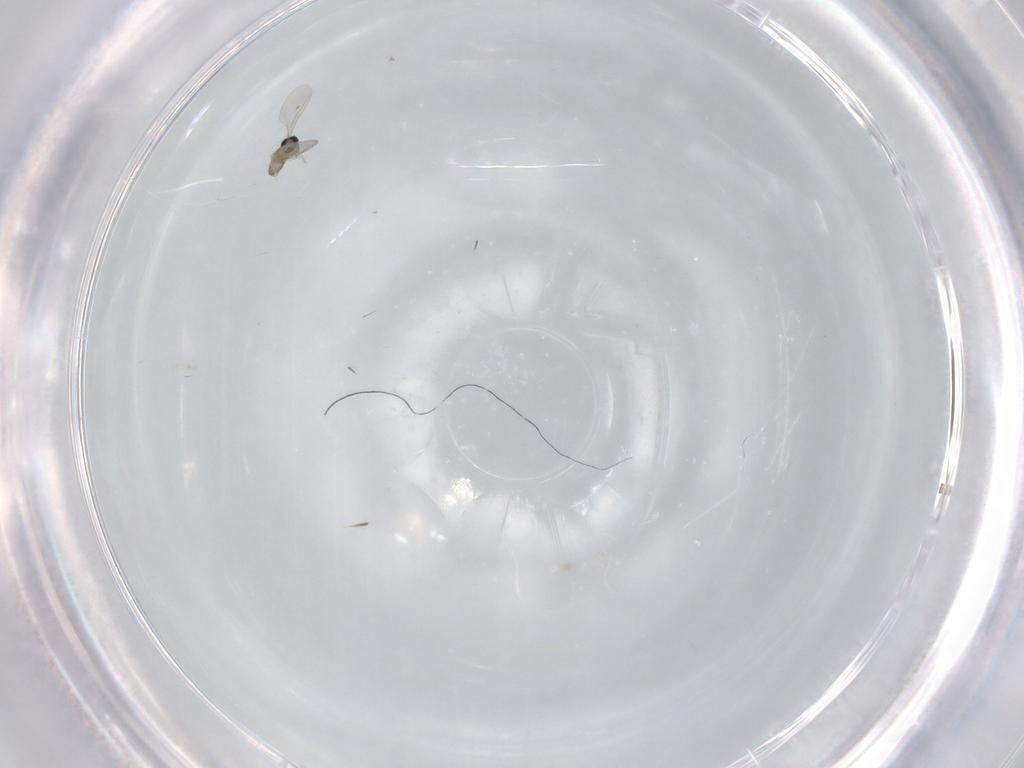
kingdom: Animalia
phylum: Arthropoda
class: Insecta
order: Diptera
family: Cecidomyiidae
